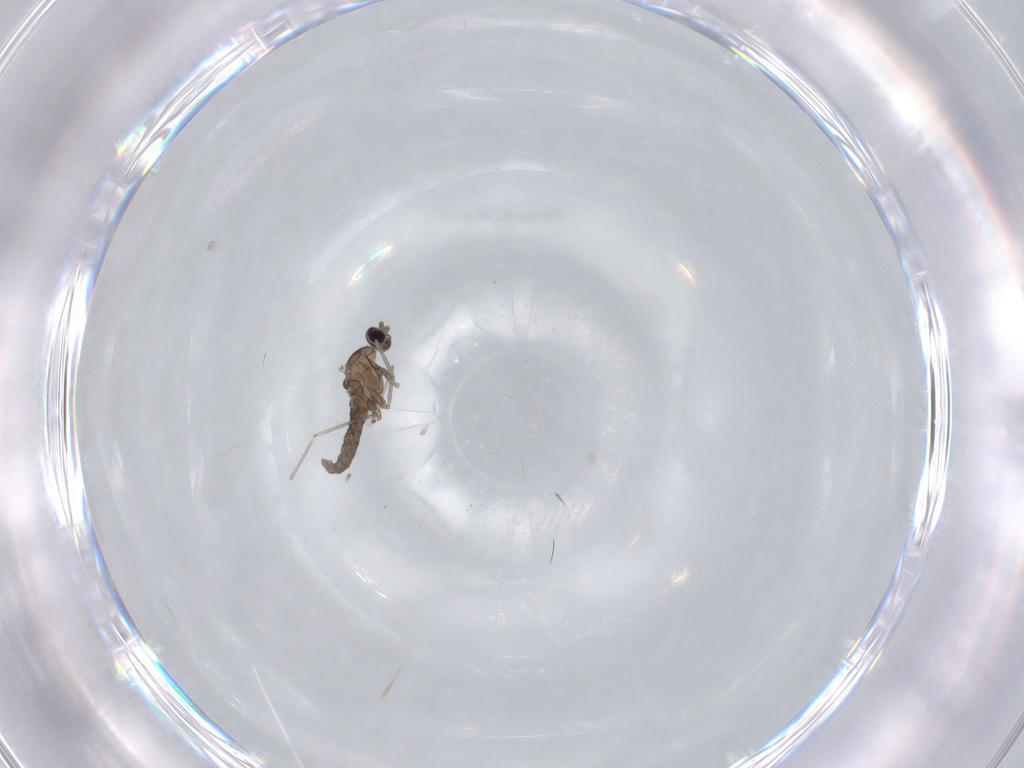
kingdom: Animalia
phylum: Arthropoda
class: Insecta
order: Diptera
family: Cecidomyiidae
